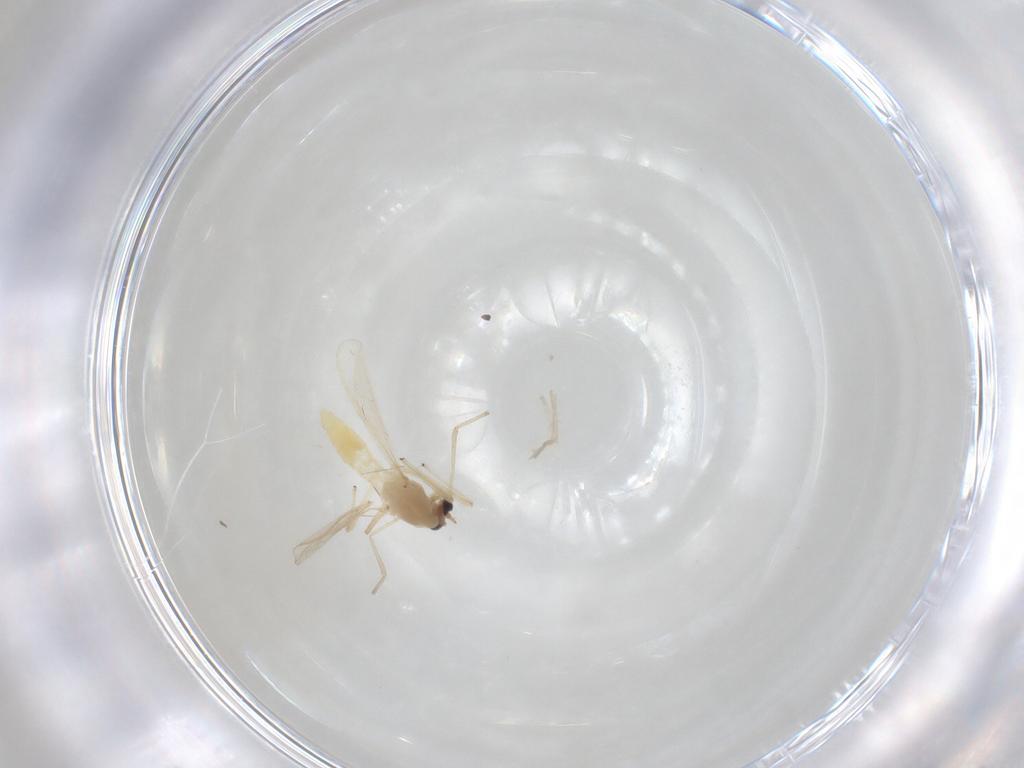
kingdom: Animalia
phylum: Arthropoda
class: Insecta
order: Diptera
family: Chironomidae
